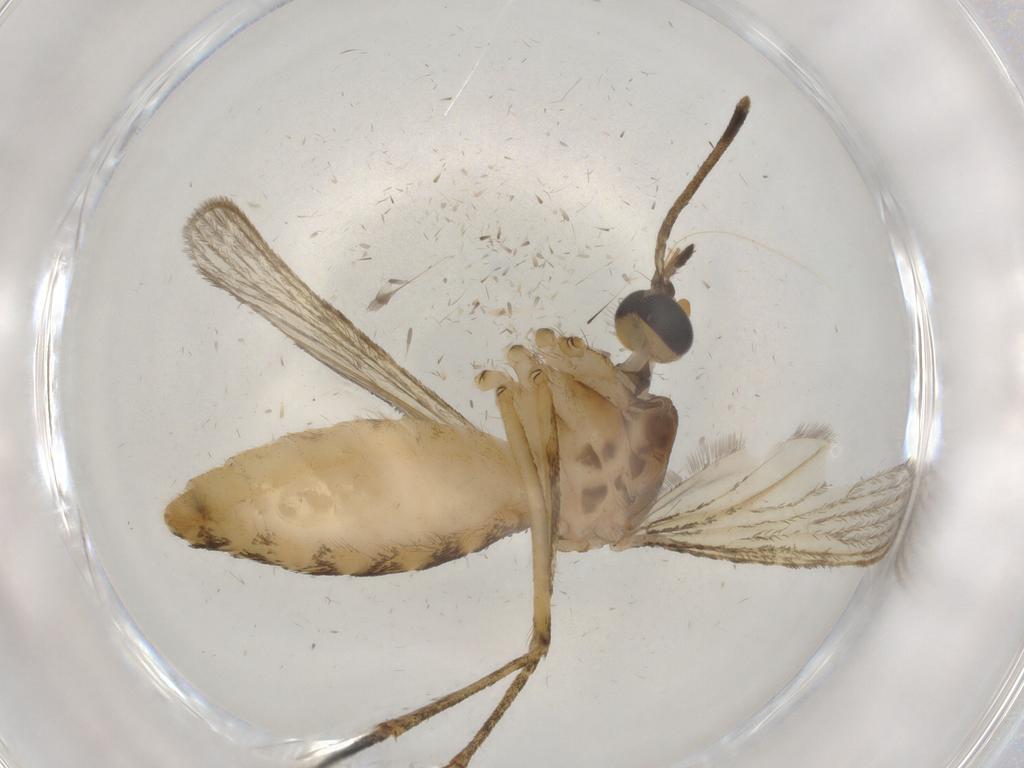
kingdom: Animalia
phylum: Arthropoda
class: Insecta
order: Diptera
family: Culicidae
